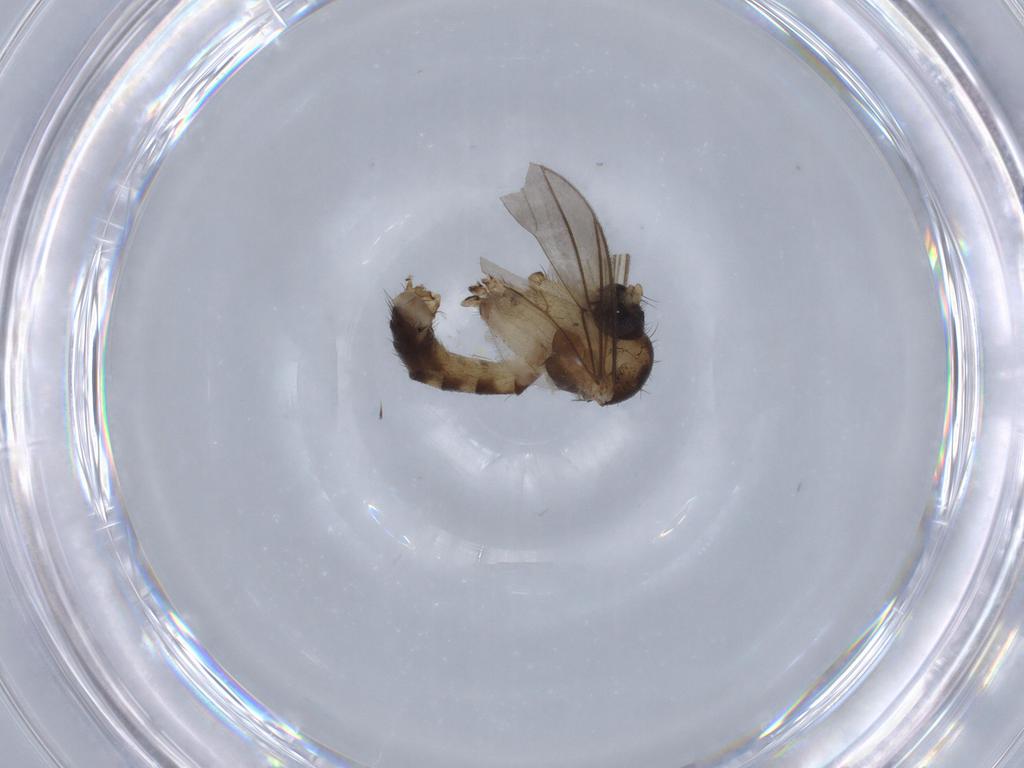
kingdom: Animalia
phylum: Arthropoda
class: Insecta
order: Diptera
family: Mycetophilidae
